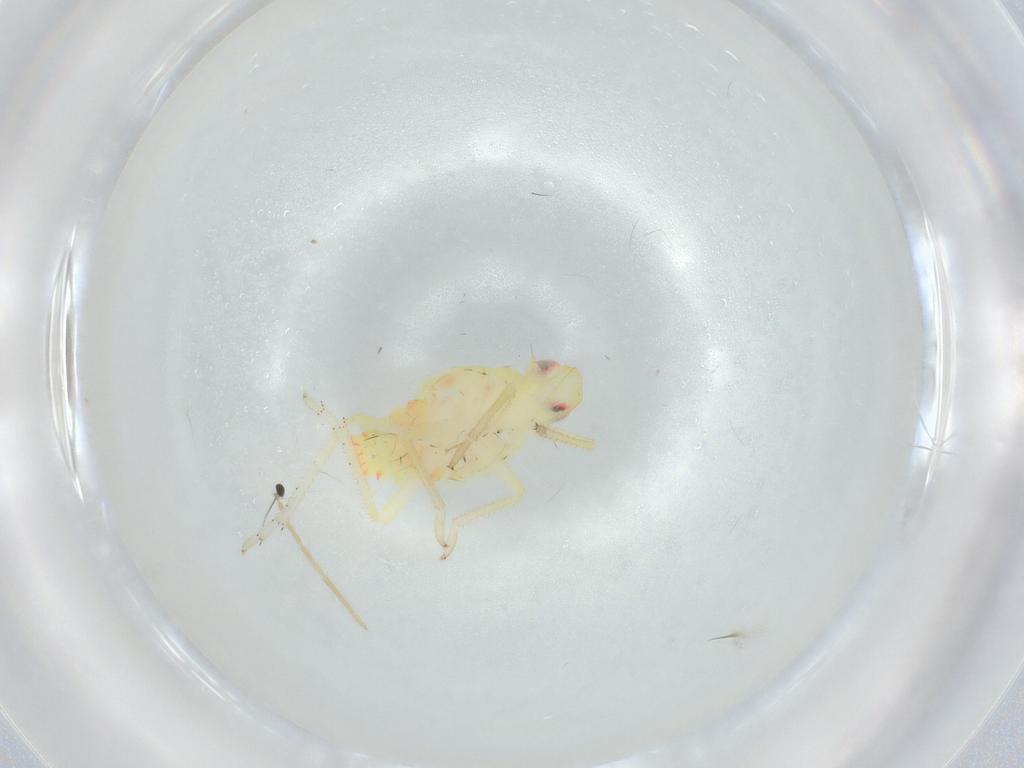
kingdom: Animalia
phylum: Arthropoda
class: Insecta
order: Hemiptera
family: Tropiduchidae
